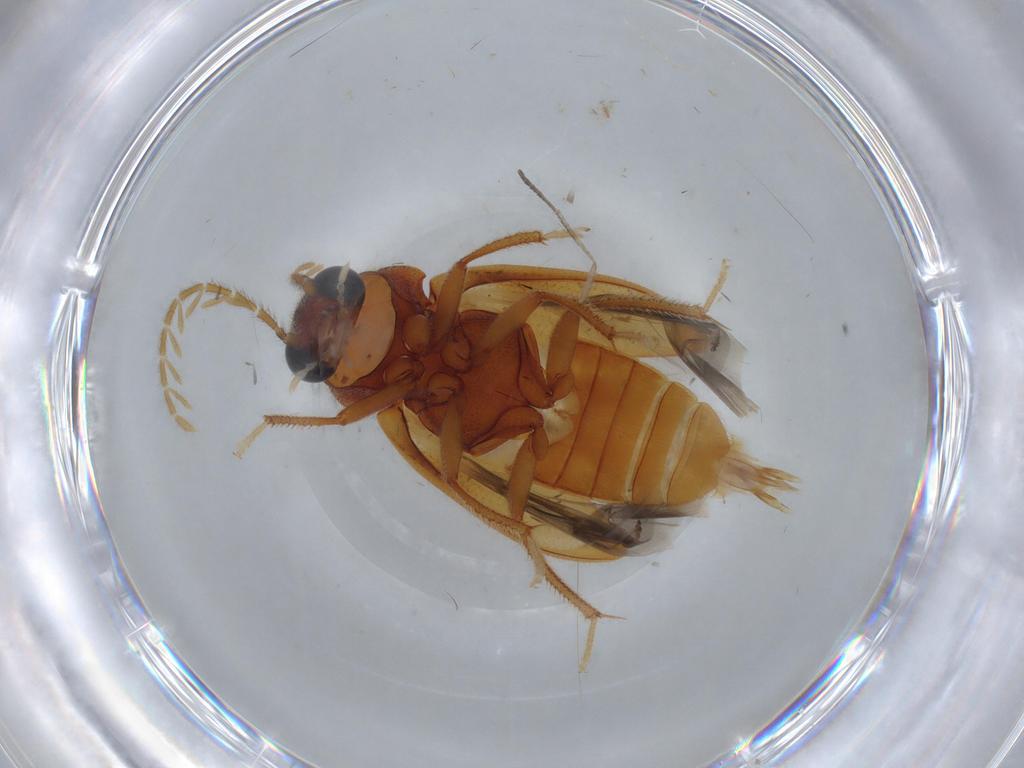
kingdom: Animalia
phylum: Arthropoda
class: Insecta
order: Coleoptera
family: Ptilodactylidae
